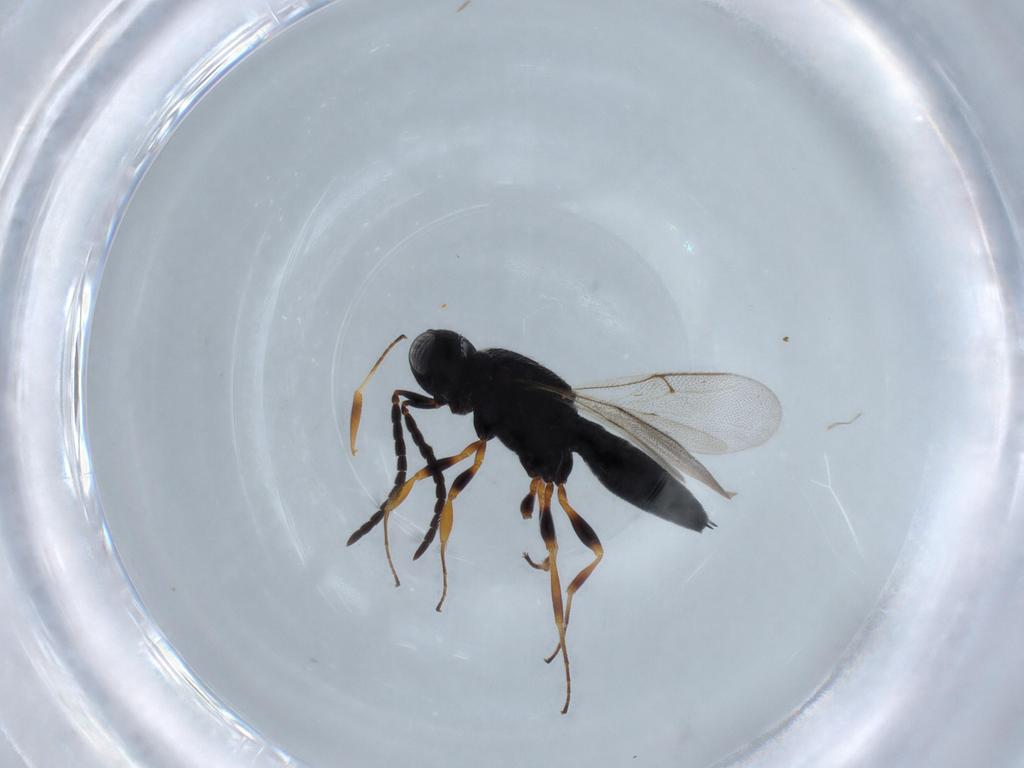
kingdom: Animalia
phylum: Arthropoda
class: Insecta
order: Hymenoptera
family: Scelionidae
